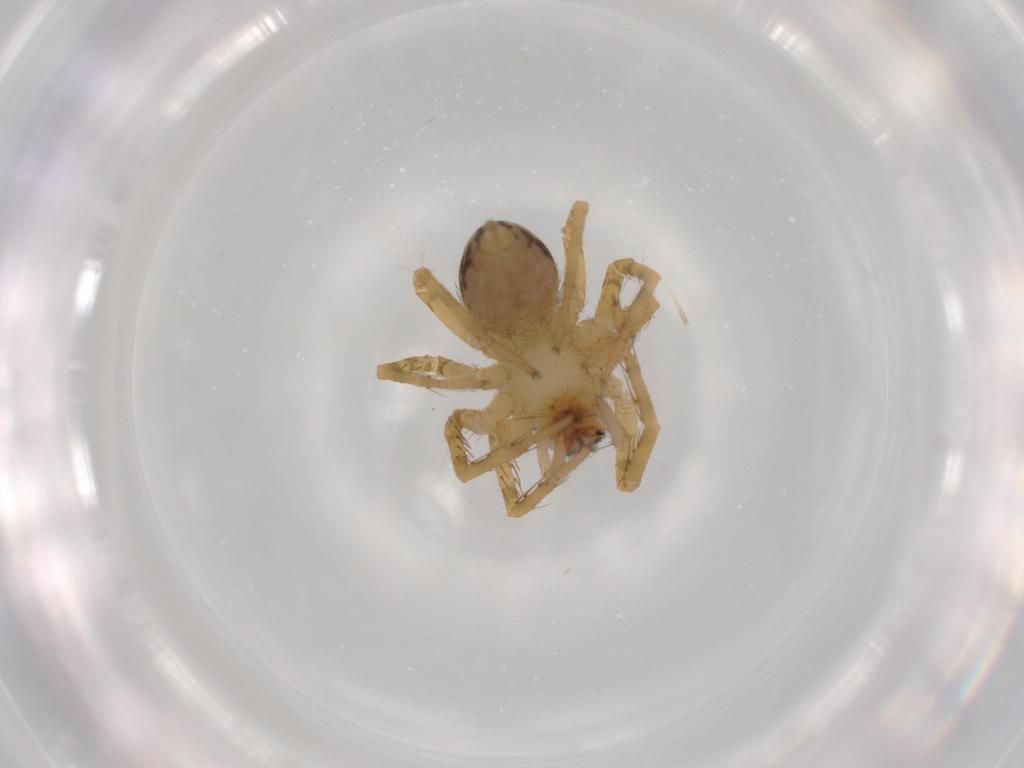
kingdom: Animalia
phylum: Arthropoda
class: Arachnida
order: Araneae
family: Ctenidae
